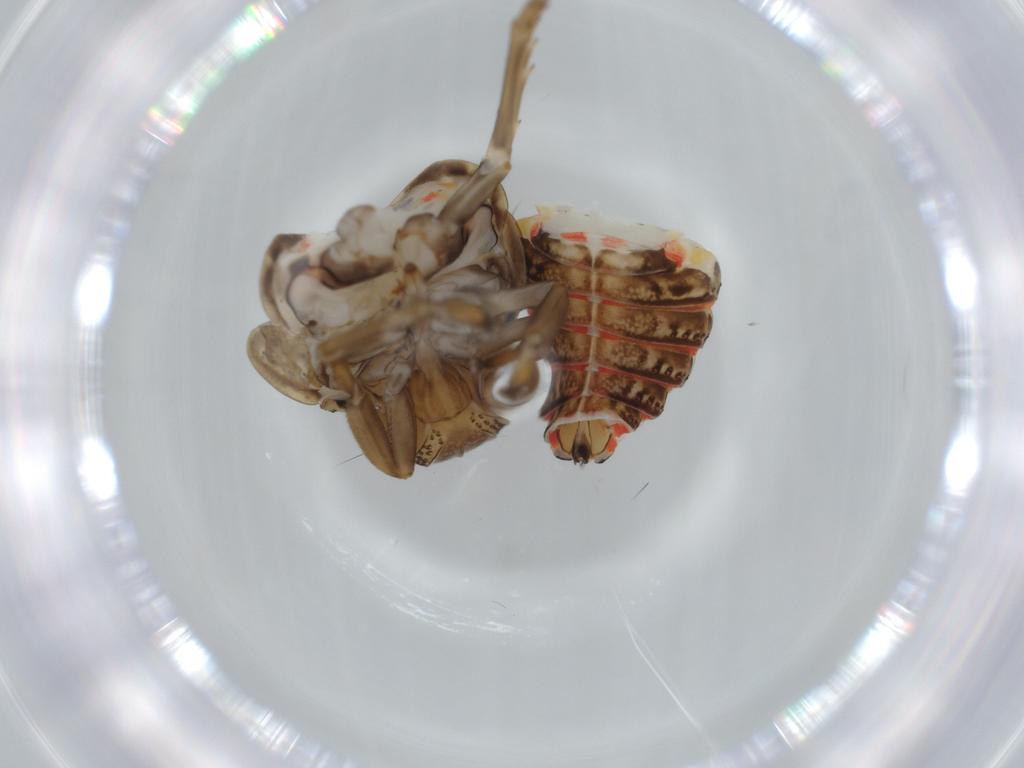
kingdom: Animalia
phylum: Arthropoda
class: Insecta
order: Hemiptera
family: Issidae
